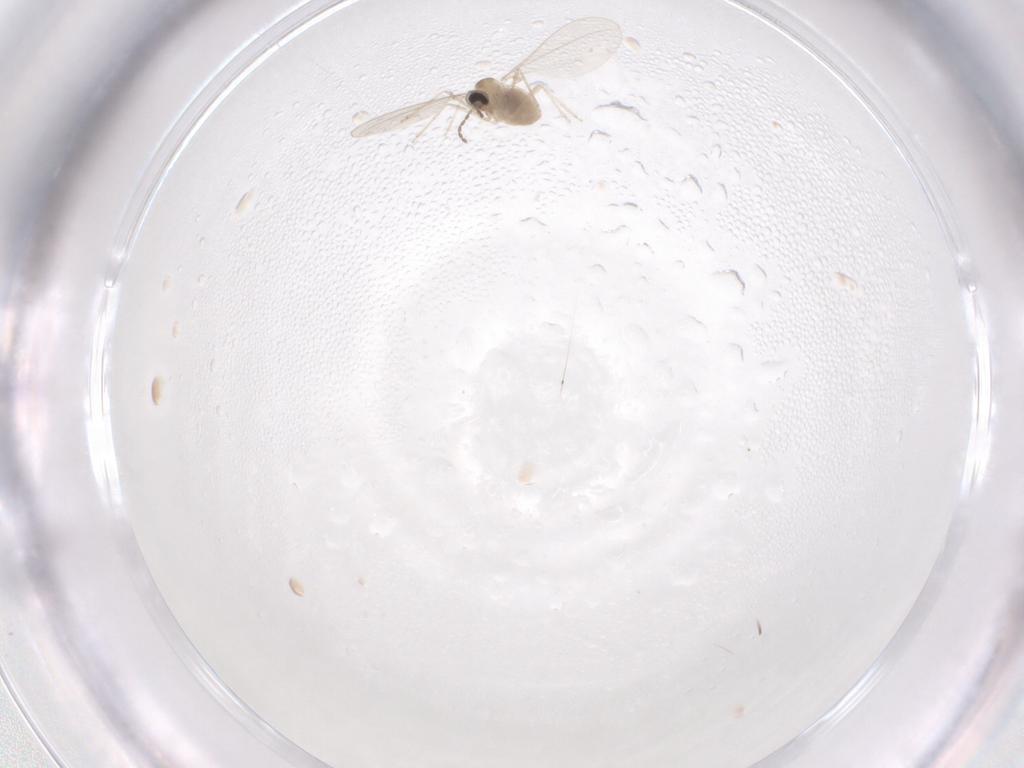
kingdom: Animalia
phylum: Arthropoda
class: Insecta
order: Diptera
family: Cecidomyiidae
